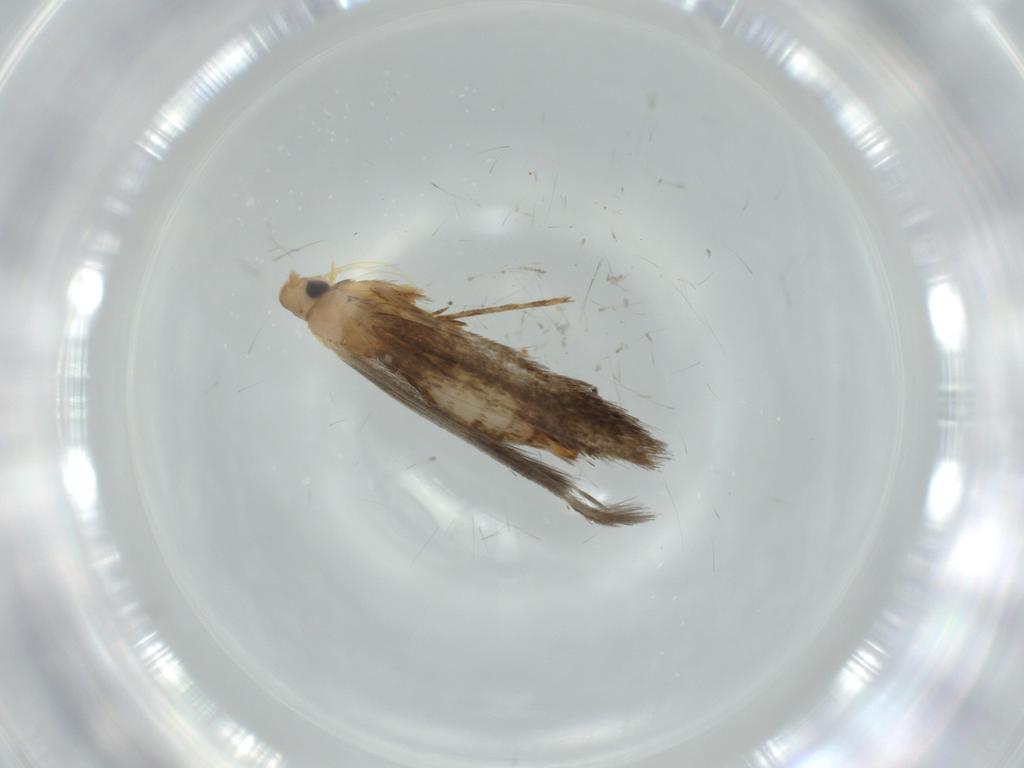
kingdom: Animalia
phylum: Arthropoda
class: Insecta
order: Lepidoptera
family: Tischeriidae
